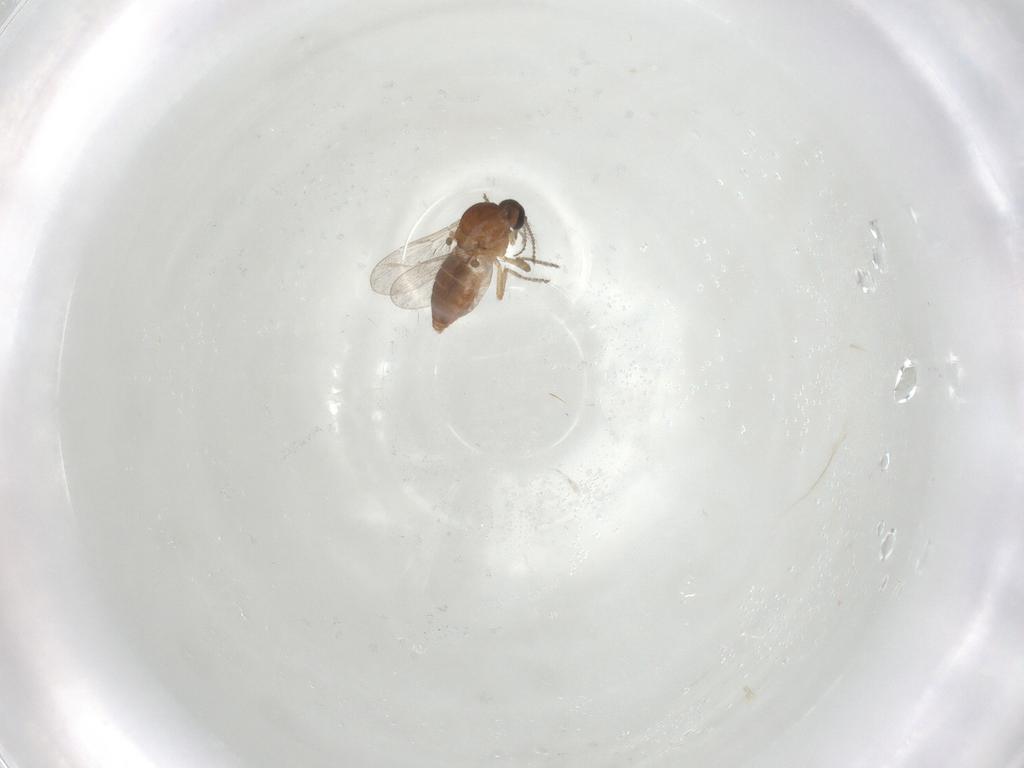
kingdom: Animalia
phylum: Arthropoda
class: Insecta
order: Diptera
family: Ceratopogonidae
